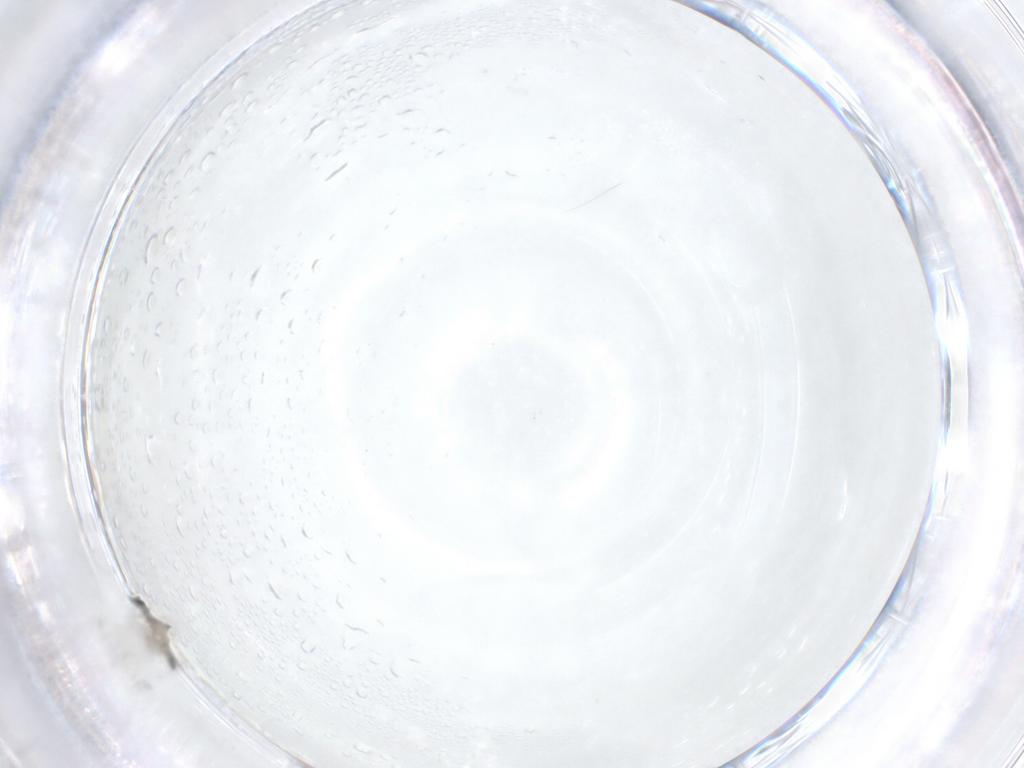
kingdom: Animalia
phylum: Arthropoda
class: Insecta
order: Diptera
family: Cecidomyiidae
